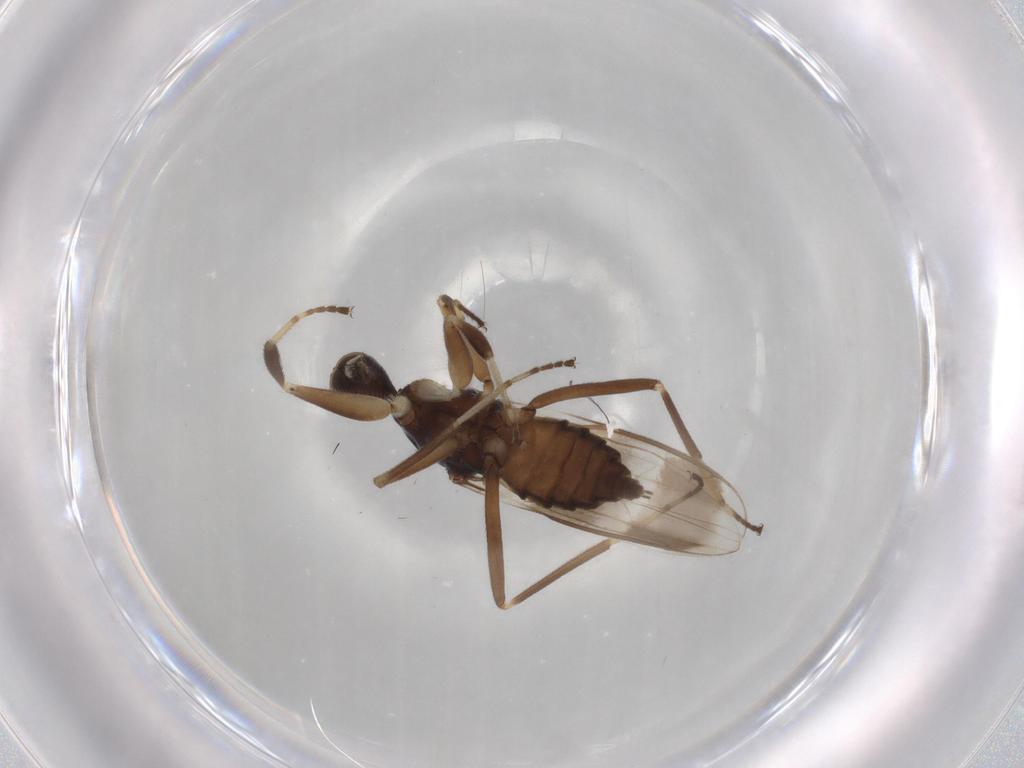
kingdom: Animalia
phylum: Arthropoda
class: Insecta
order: Diptera
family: Hybotidae
